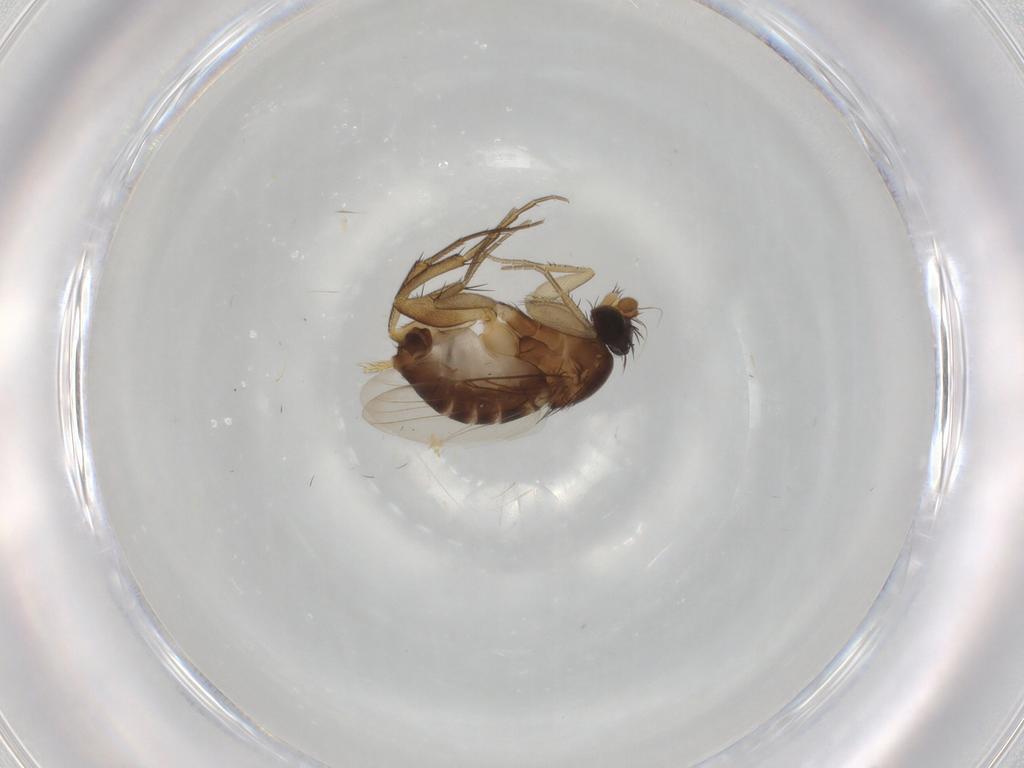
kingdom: Animalia
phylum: Arthropoda
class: Insecta
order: Diptera
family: Phoridae
